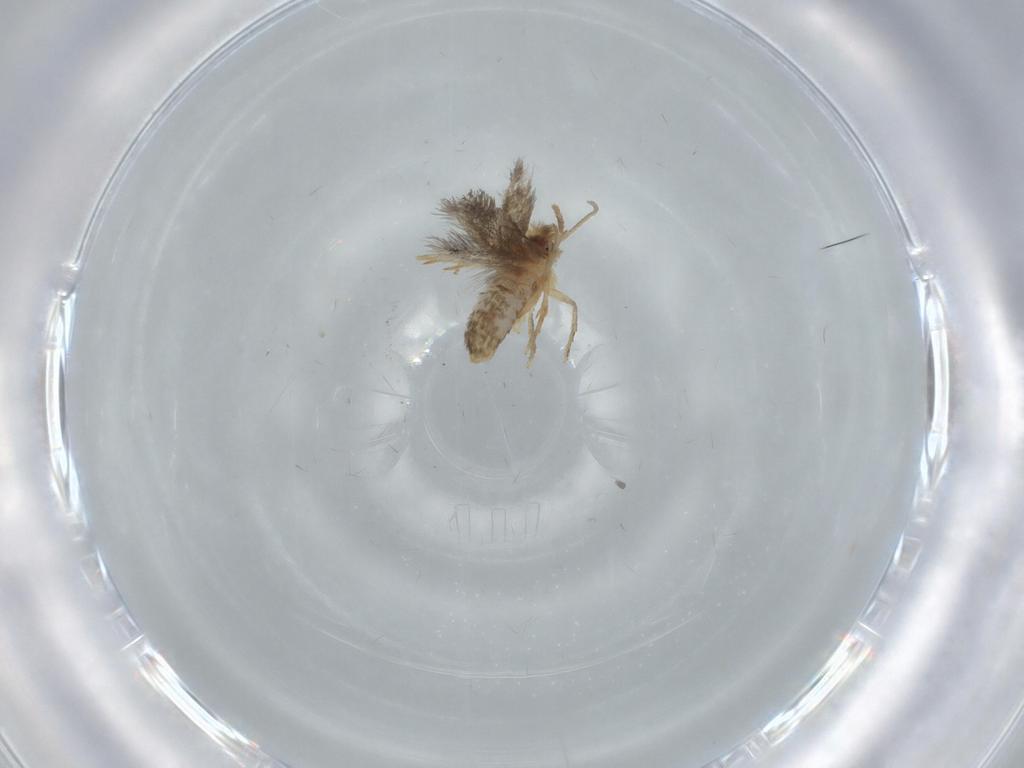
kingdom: Animalia
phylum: Arthropoda
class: Insecta
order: Lepidoptera
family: Nepticulidae
